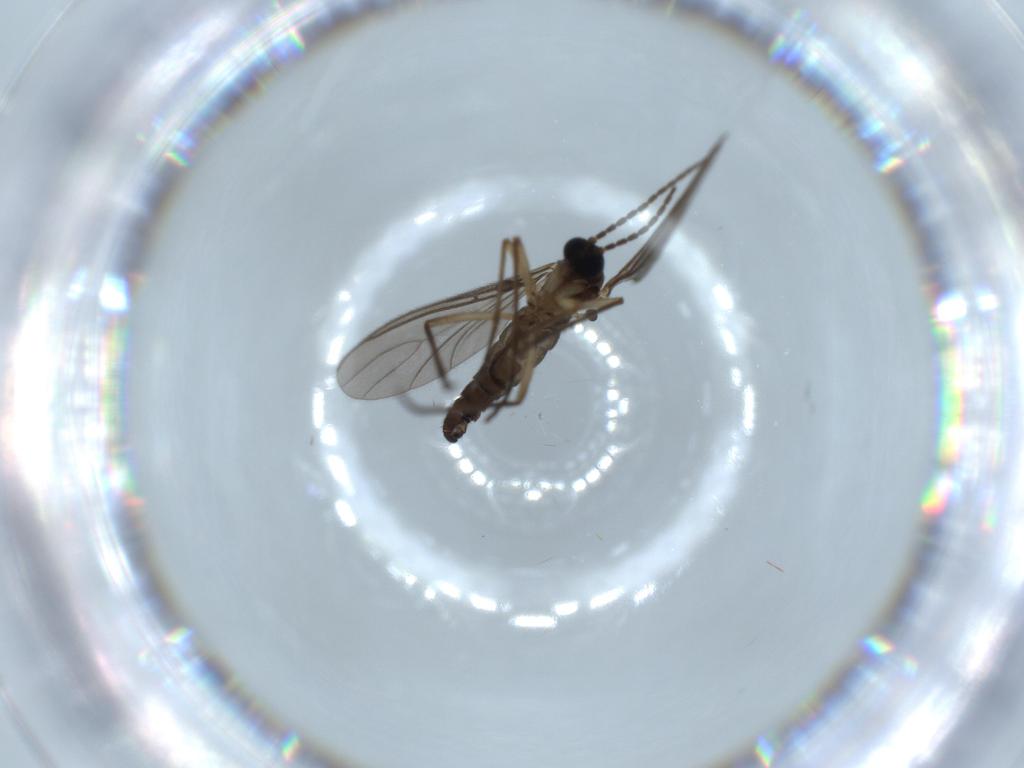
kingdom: Animalia
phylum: Arthropoda
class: Insecta
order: Diptera
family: Sciaridae
